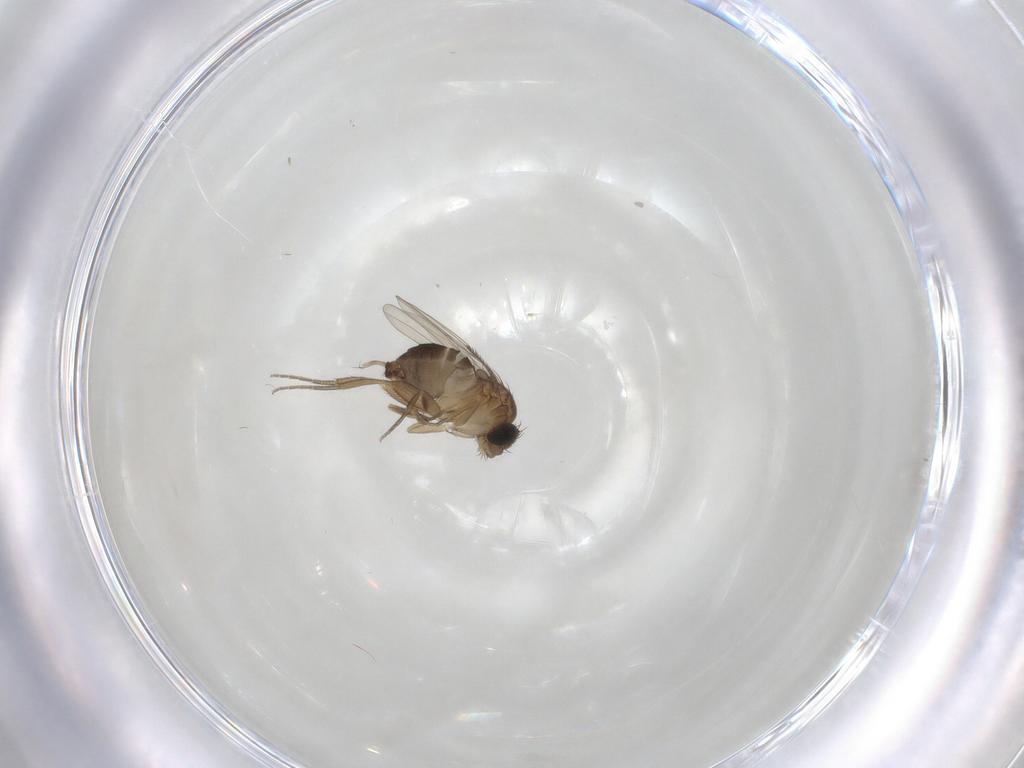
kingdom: Animalia
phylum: Arthropoda
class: Insecta
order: Diptera
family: Phoridae
